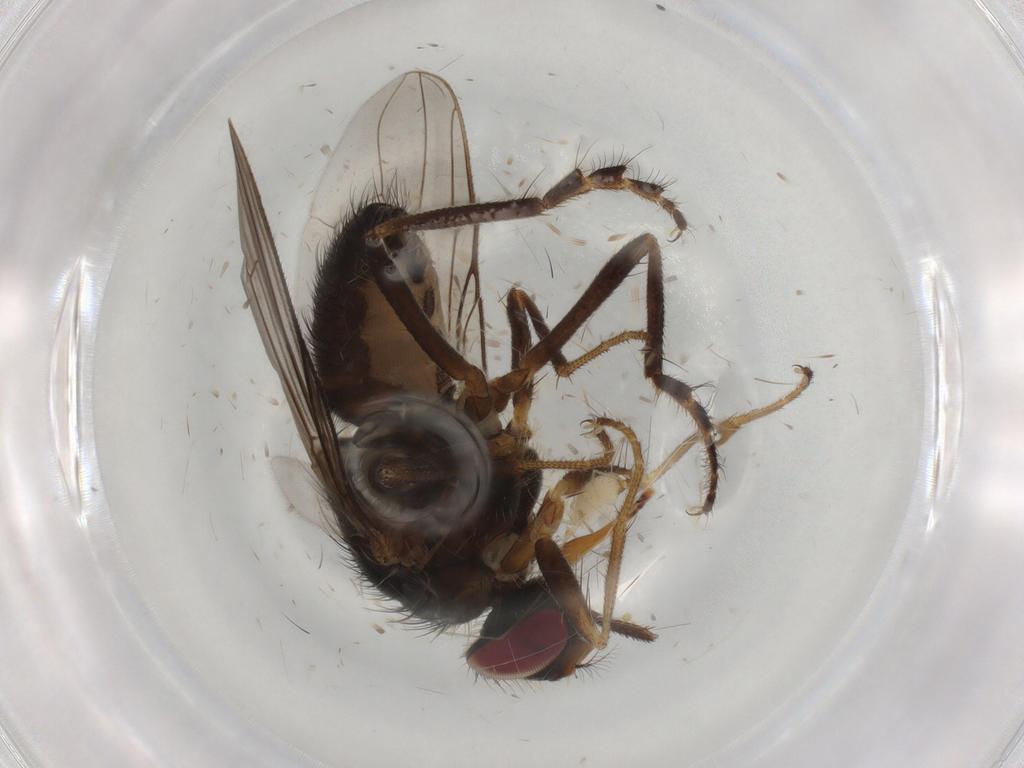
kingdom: Animalia
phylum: Arthropoda
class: Insecta
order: Diptera
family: Cecidomyiidae
